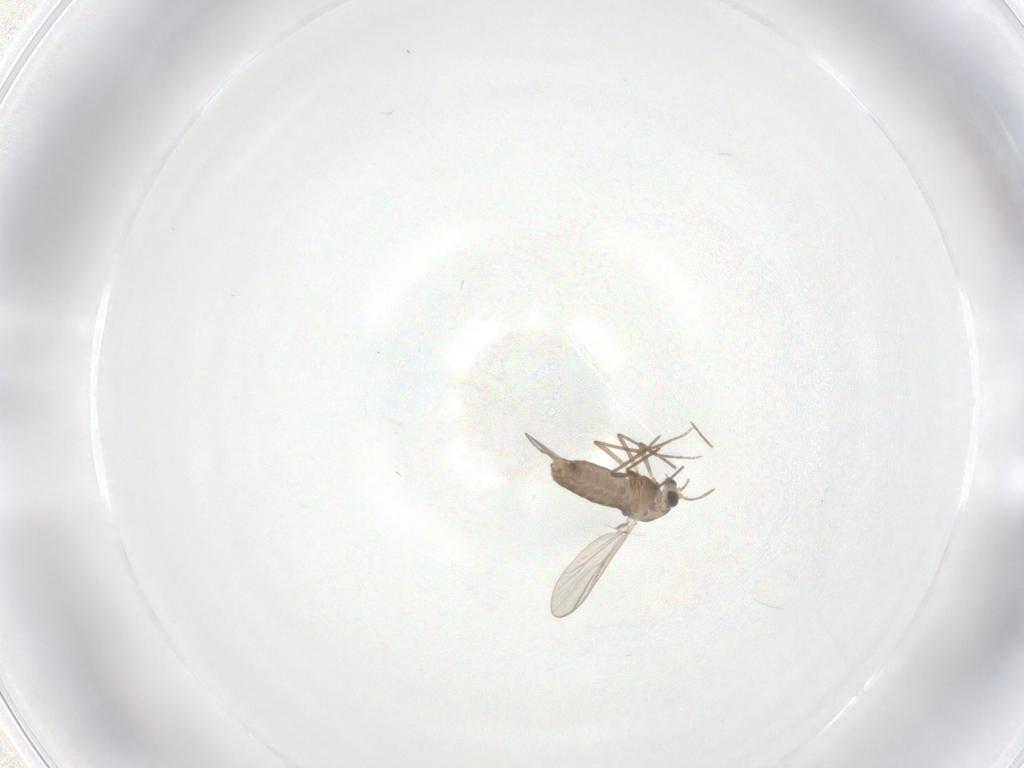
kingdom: Animalia
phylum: Arthropoda
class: Insecta
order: Diptera
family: Chironomidae
